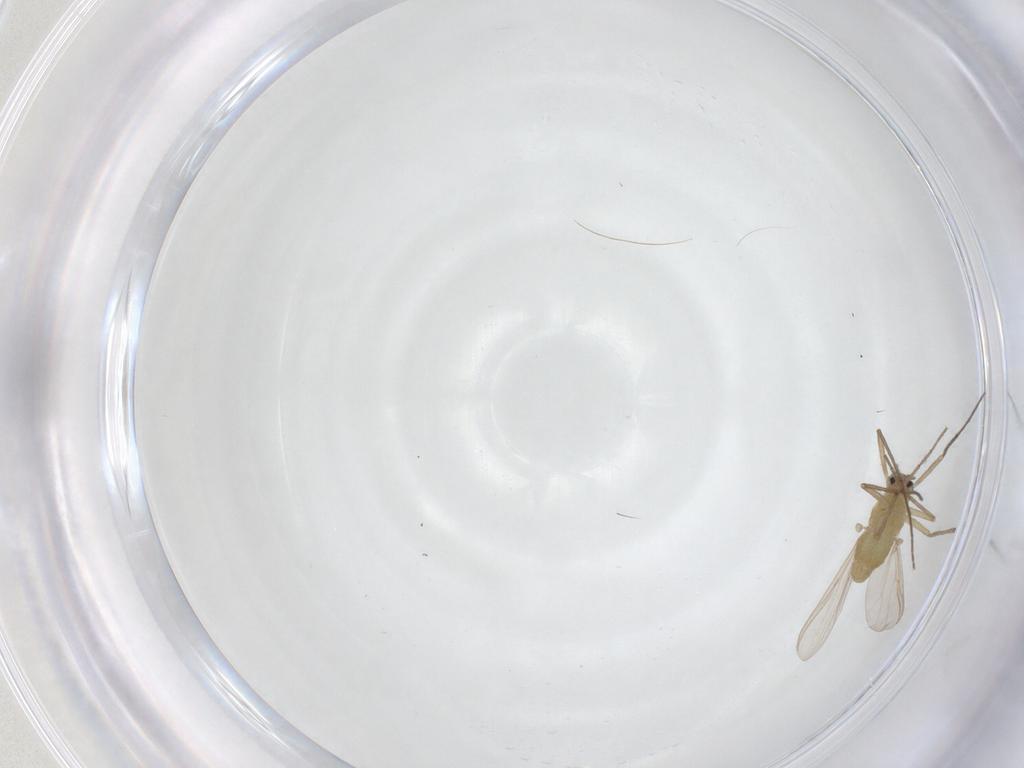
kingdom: Animalia
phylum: Arthropoda
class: Insecta
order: Diptera
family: Chironomidae
